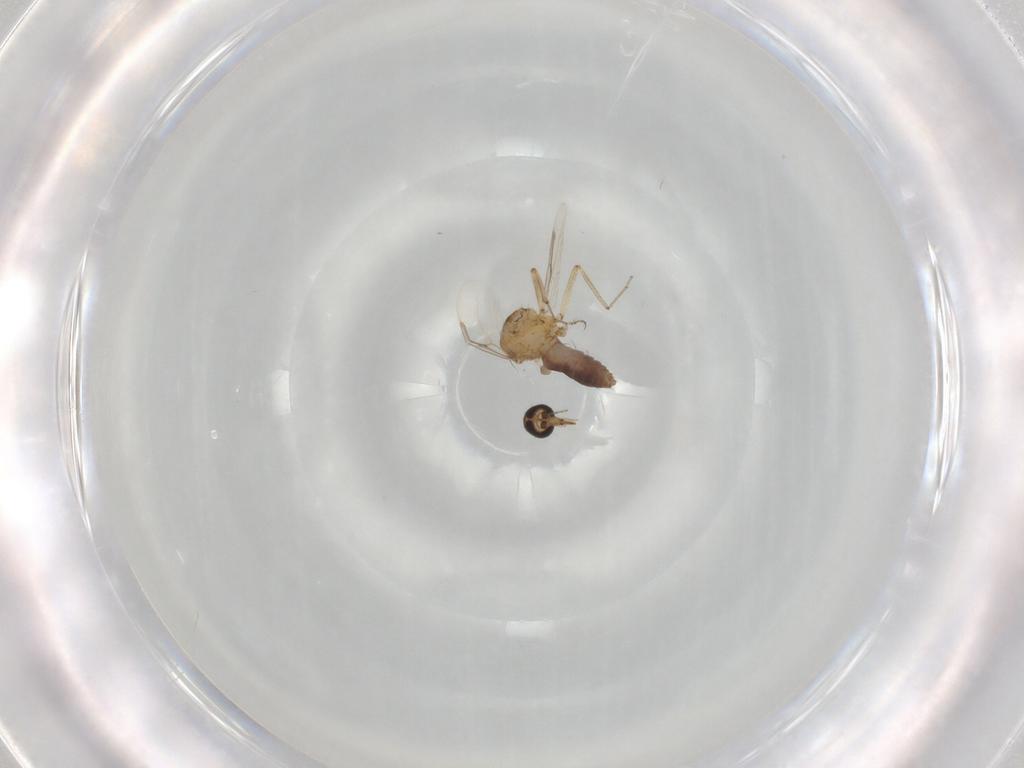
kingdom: Animalia
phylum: Arthropoda
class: Insecta
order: Diptera
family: Ceratopogonidae
